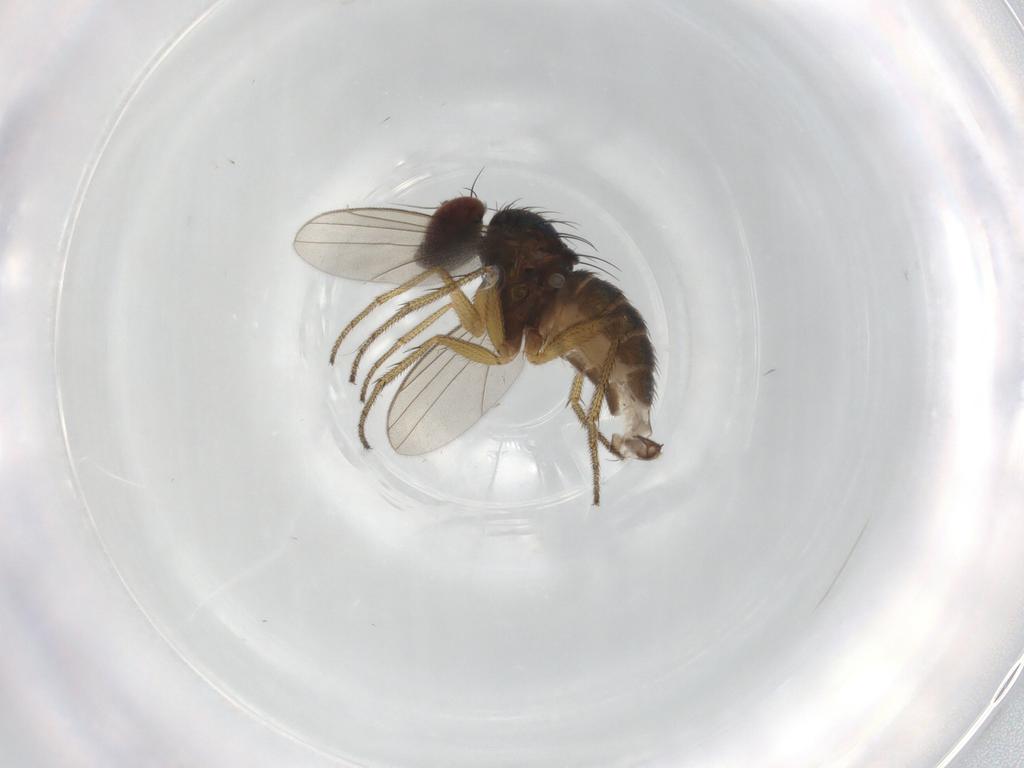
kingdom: Animalia
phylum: Arthropoda
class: Insecta
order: Diptera
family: Micropezidae
